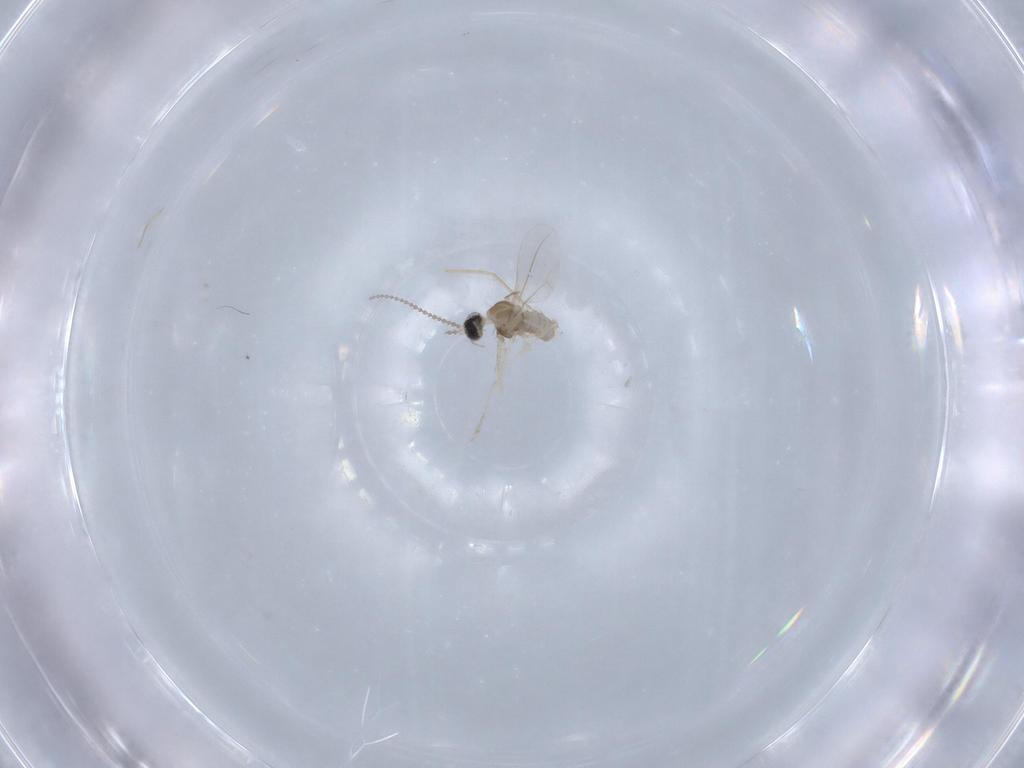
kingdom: Animalia
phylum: Arthropoda
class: Insecta
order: Diptera
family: Cecidomyiidae
